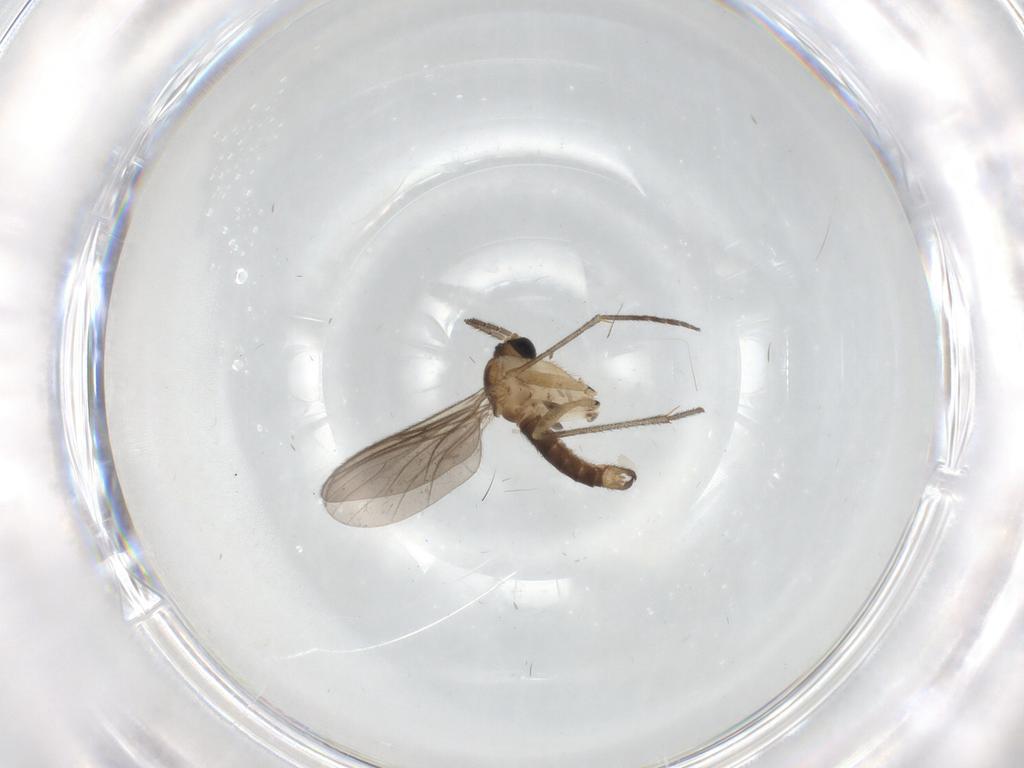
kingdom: Animalia
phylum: Arthropoda
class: Insecta
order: Diptera
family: Sciaridae
